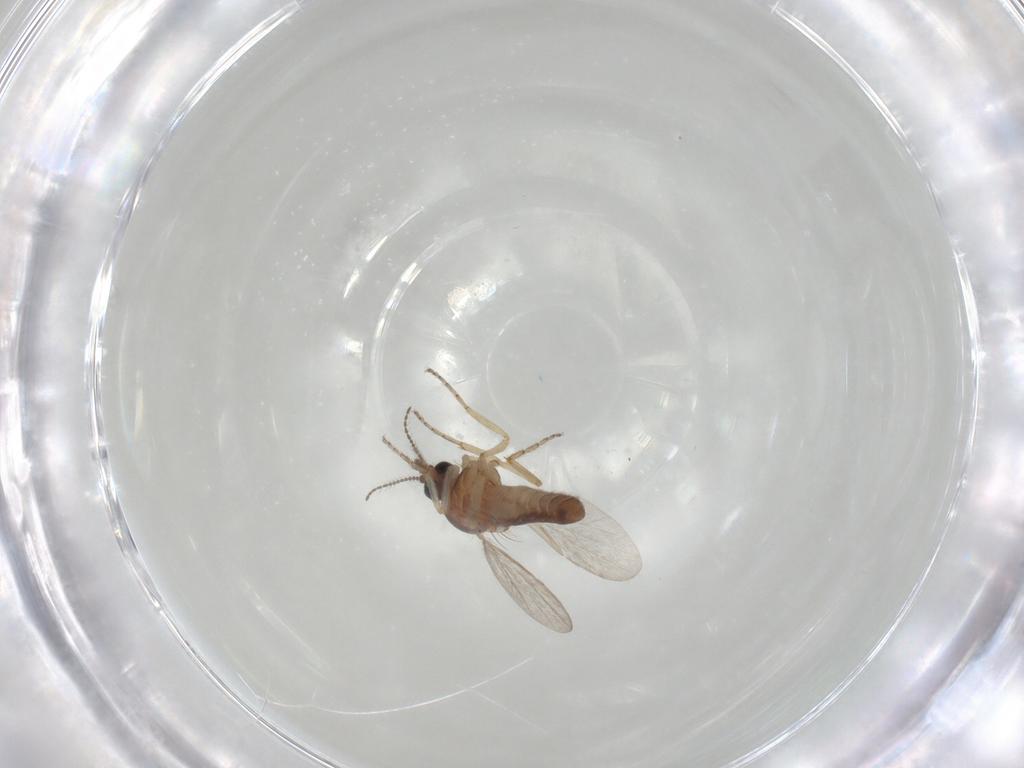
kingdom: Animalia
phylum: Arthropoda
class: Insecta
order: Diptera
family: Ceratopogonidae
